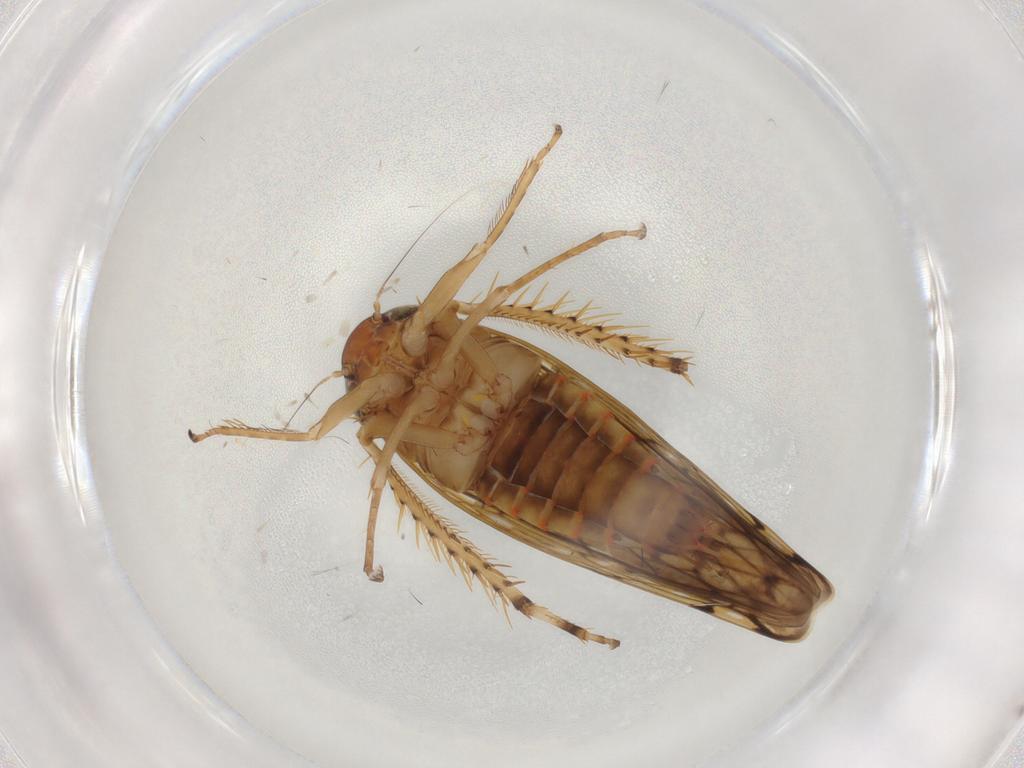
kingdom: Animalia
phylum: Arthropoda
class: Insecta
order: Hemiptera
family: Cicadellidae
